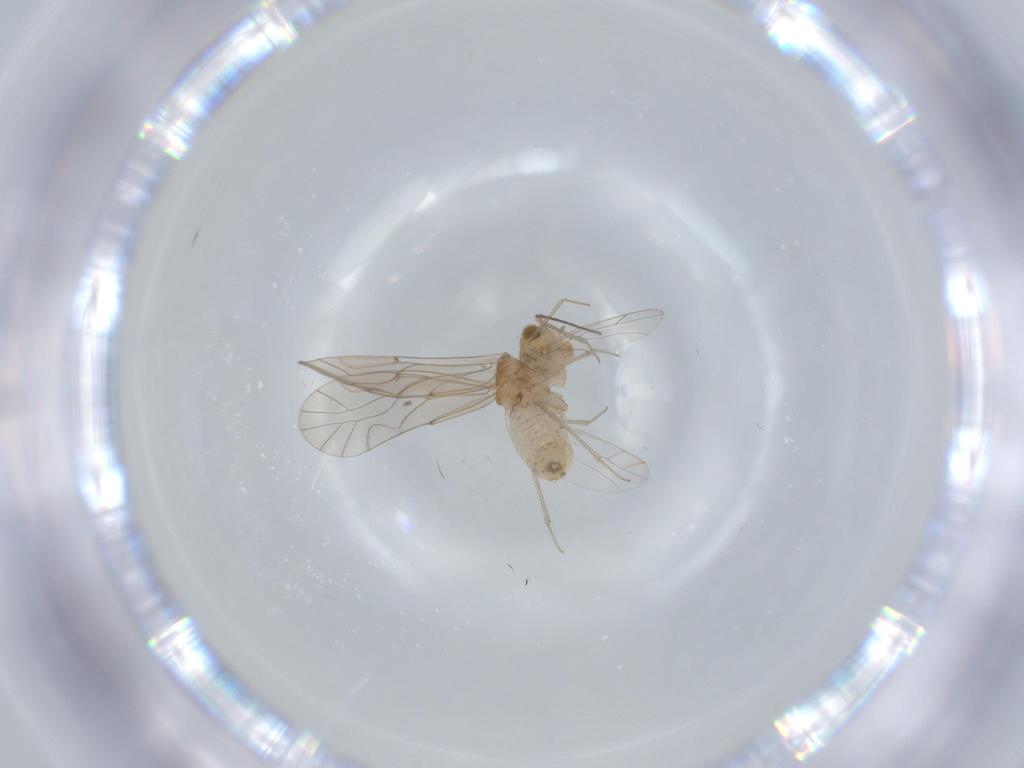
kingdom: Animalia
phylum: Arthropoda
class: Insecta
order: Psocodea
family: Lachesillidae
